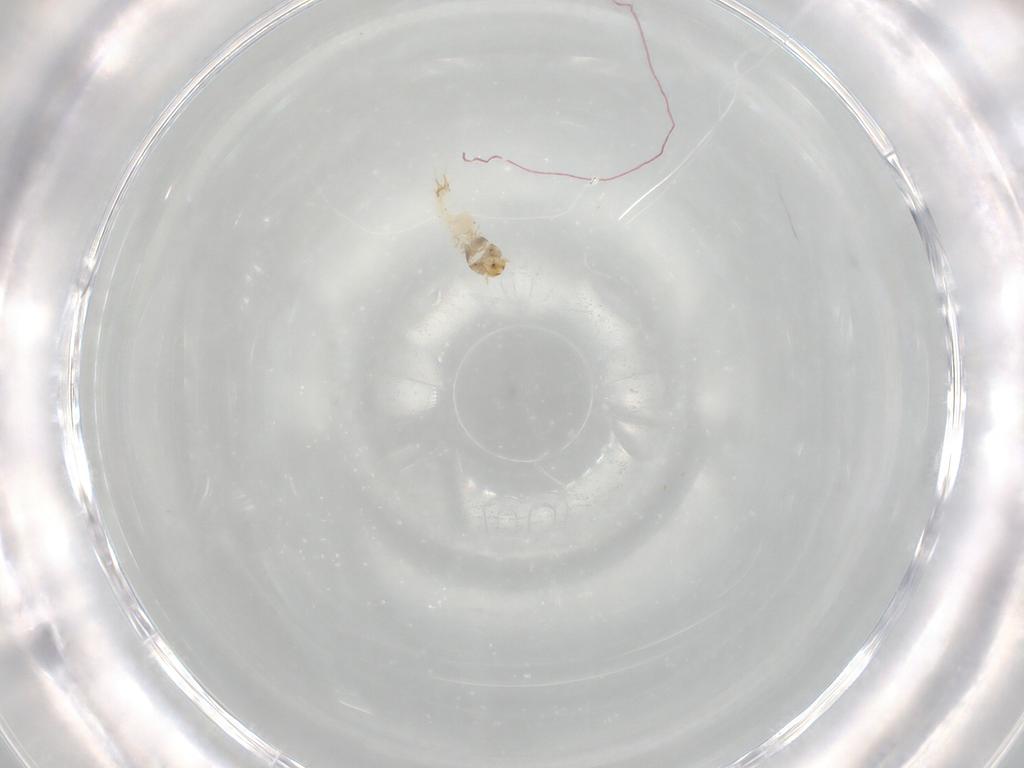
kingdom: Animalia
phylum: Arthropoda
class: Insecta
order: Coleoptera
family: Nitidulidae
